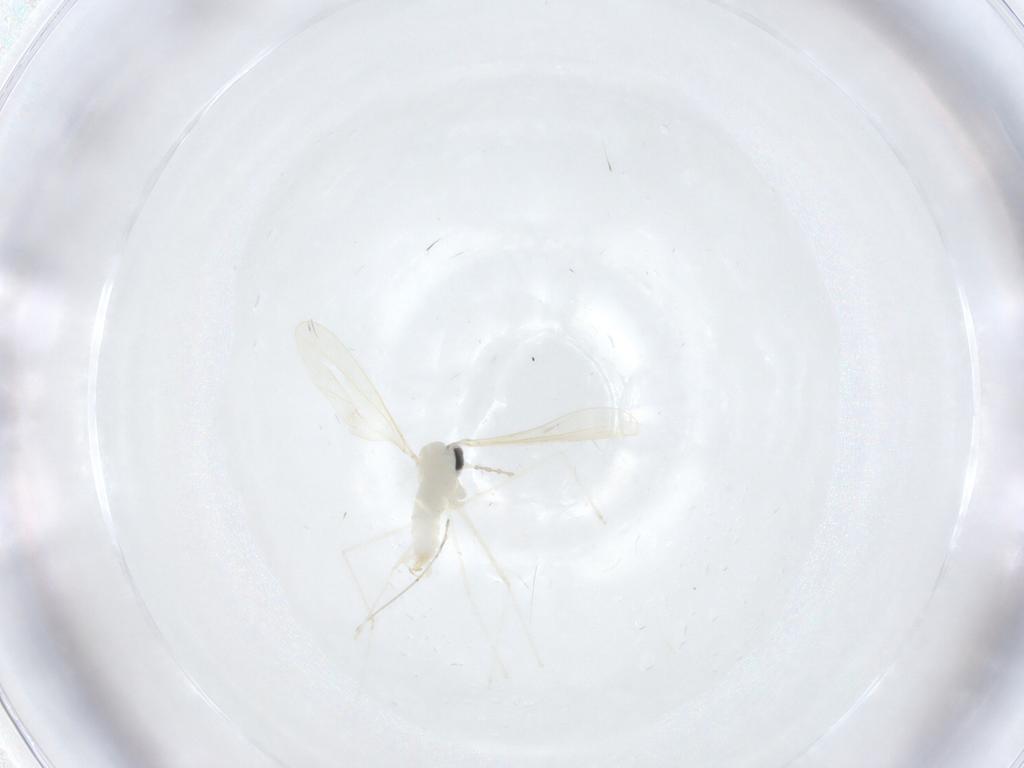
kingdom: Animalia
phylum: Arthropoda
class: Insecta
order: Diptera
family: Cecidomyiidae
